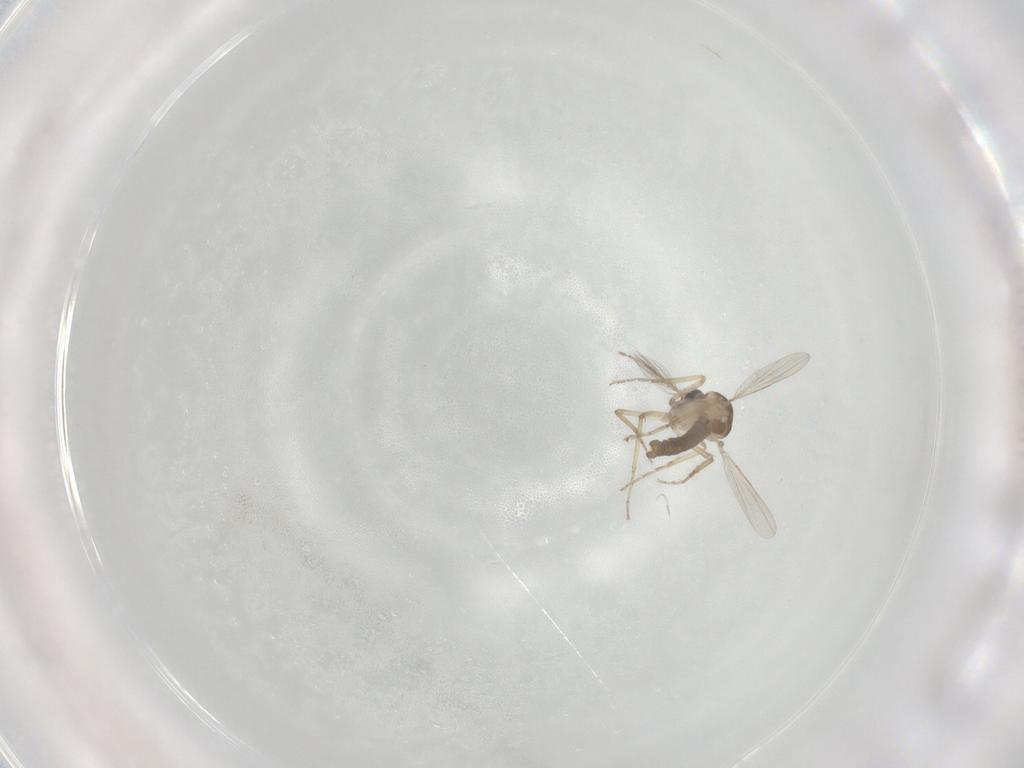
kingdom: Animalia
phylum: Arthropoda
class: Insecta
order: Diptera
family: Ceratopogonidae
